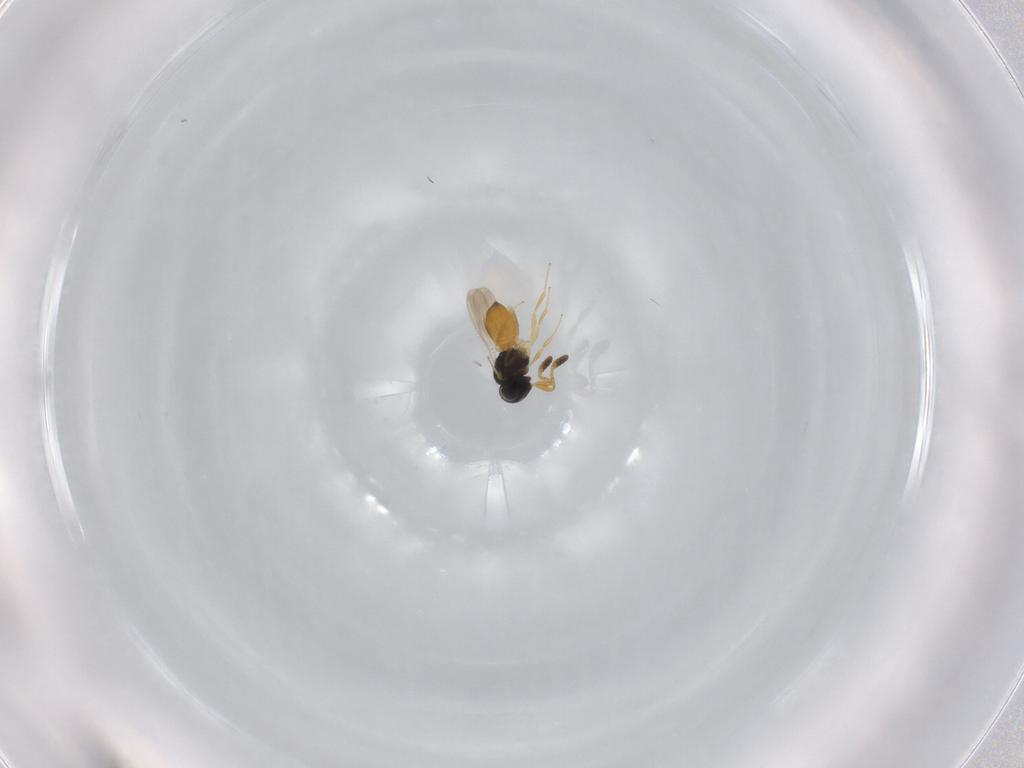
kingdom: Animalia
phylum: Arthropoda
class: Insecta
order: Hymenoptera
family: Scelionidae
